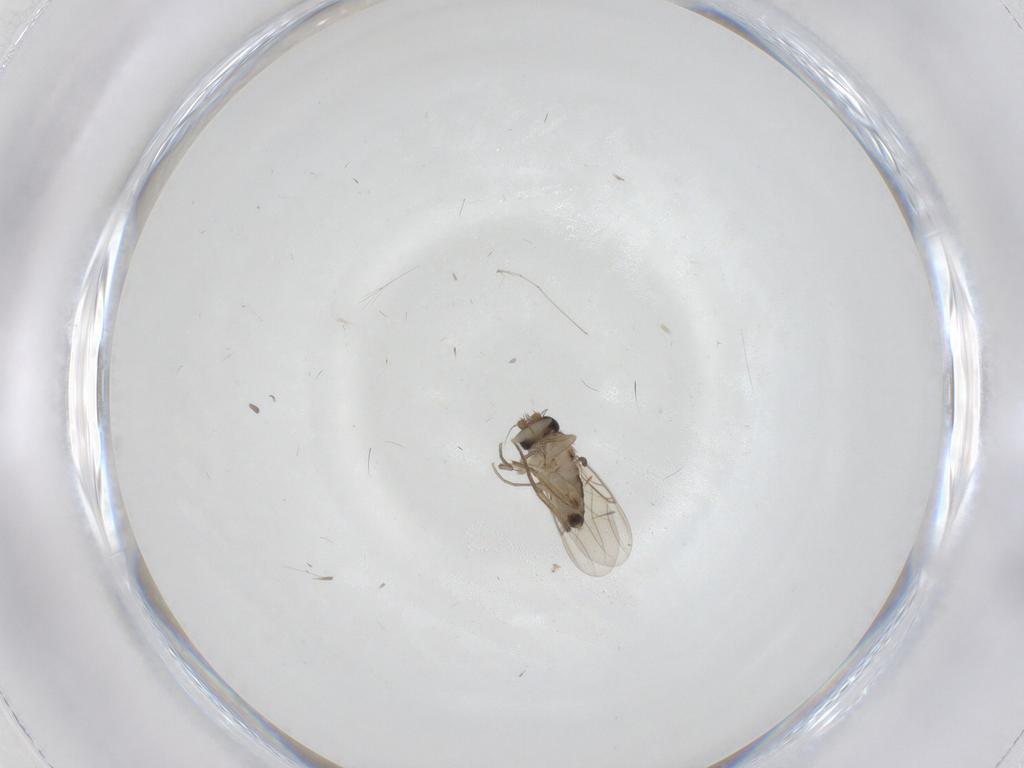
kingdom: Animalia
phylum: Arthropoda
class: Insecta
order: Diptera
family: Phoridae
